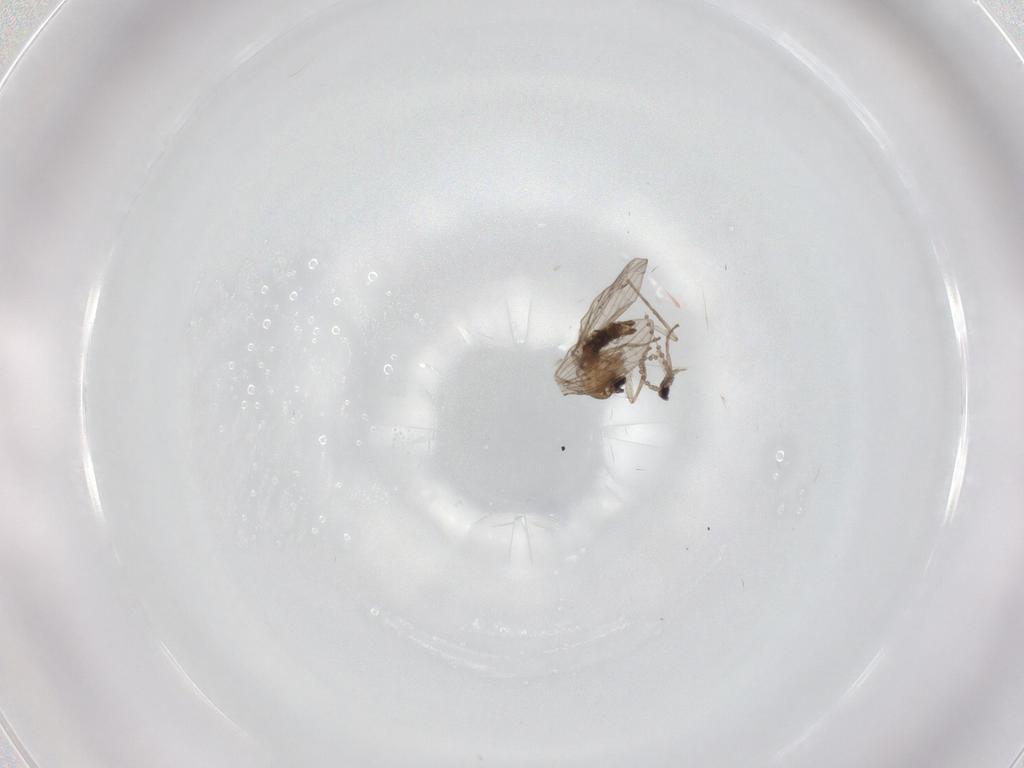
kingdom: Animalia
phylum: Arthropoda
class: Insecta
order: Diptera
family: Psychodidae
